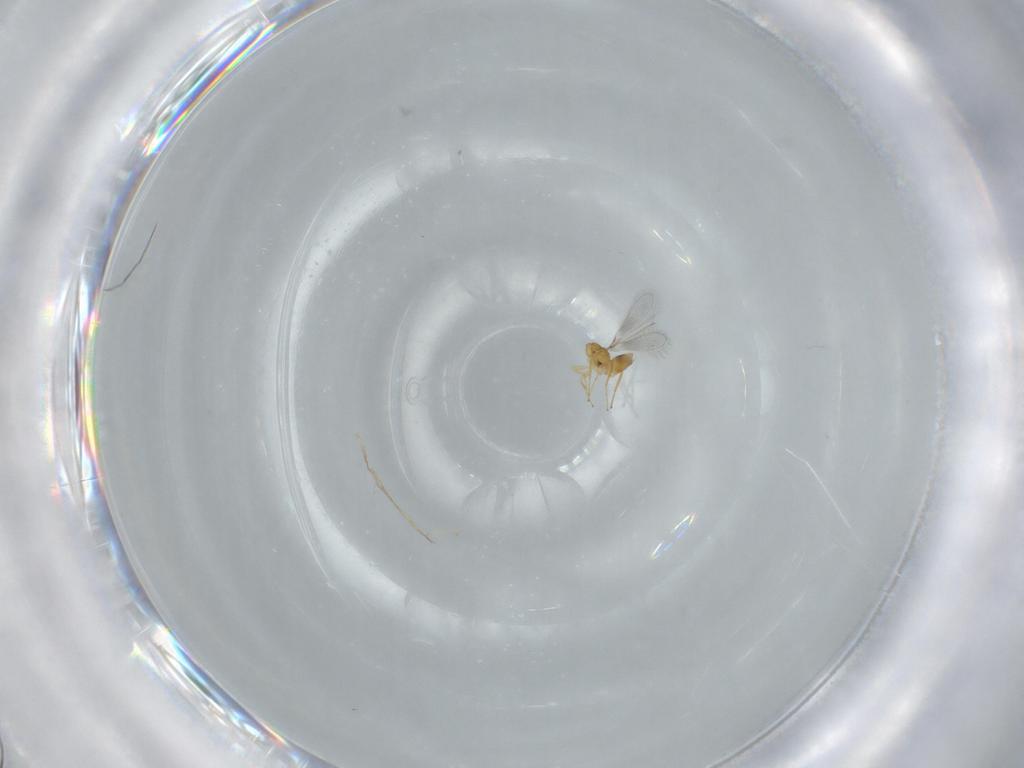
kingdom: Animalia
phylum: Arthropoda
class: Insecta
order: Hymenoptera
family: Mymaridae
